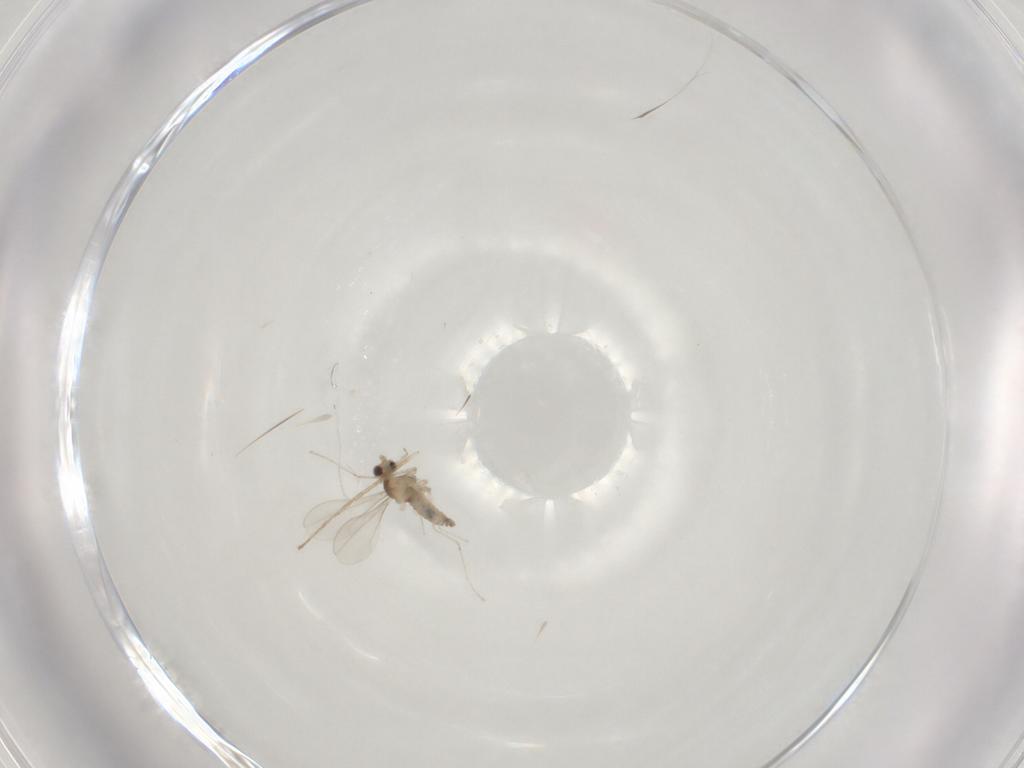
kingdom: Animalia
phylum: Arthropoda
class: Insecta
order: Diptera
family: Cecidomyiidae
